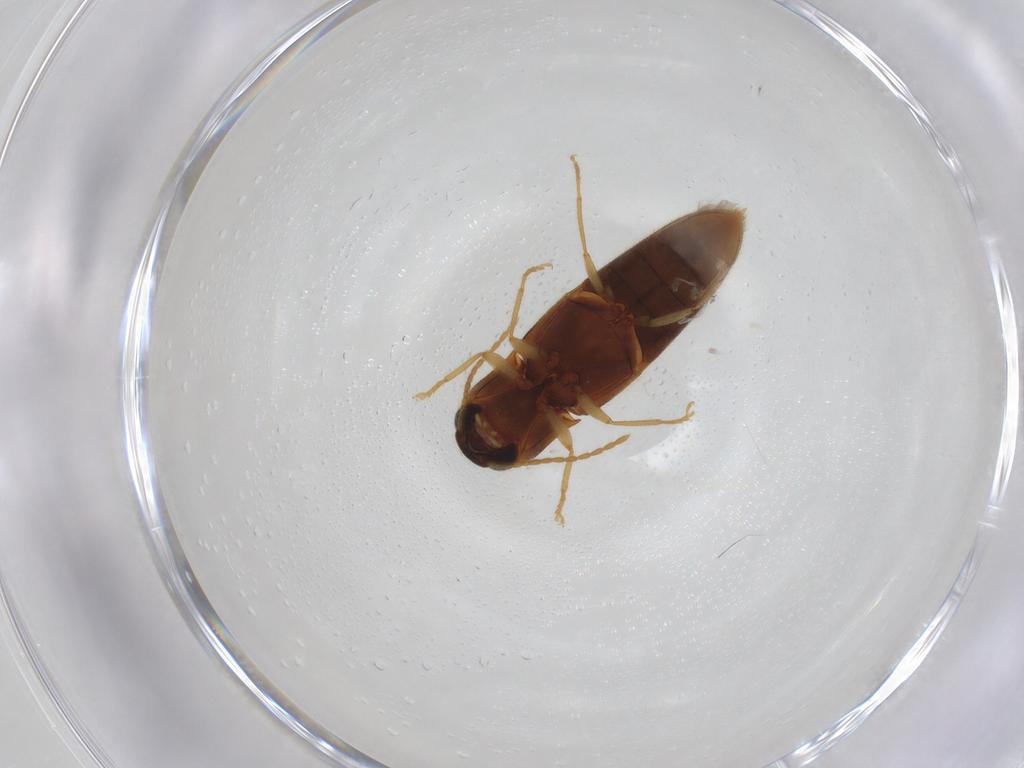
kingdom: Animalia
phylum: Arthropoda
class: Insecta
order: Coleoptera
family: Elateridae
